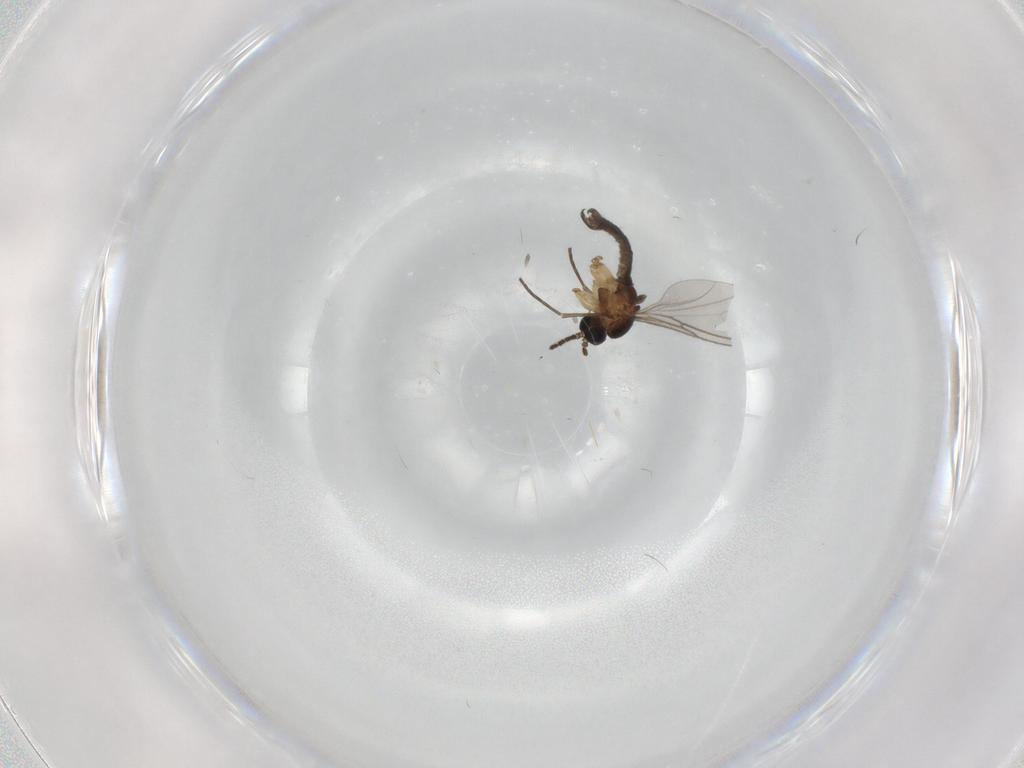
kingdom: Animalia
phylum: Arthropoda
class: Insecta
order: Diptera
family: Sciaridae
